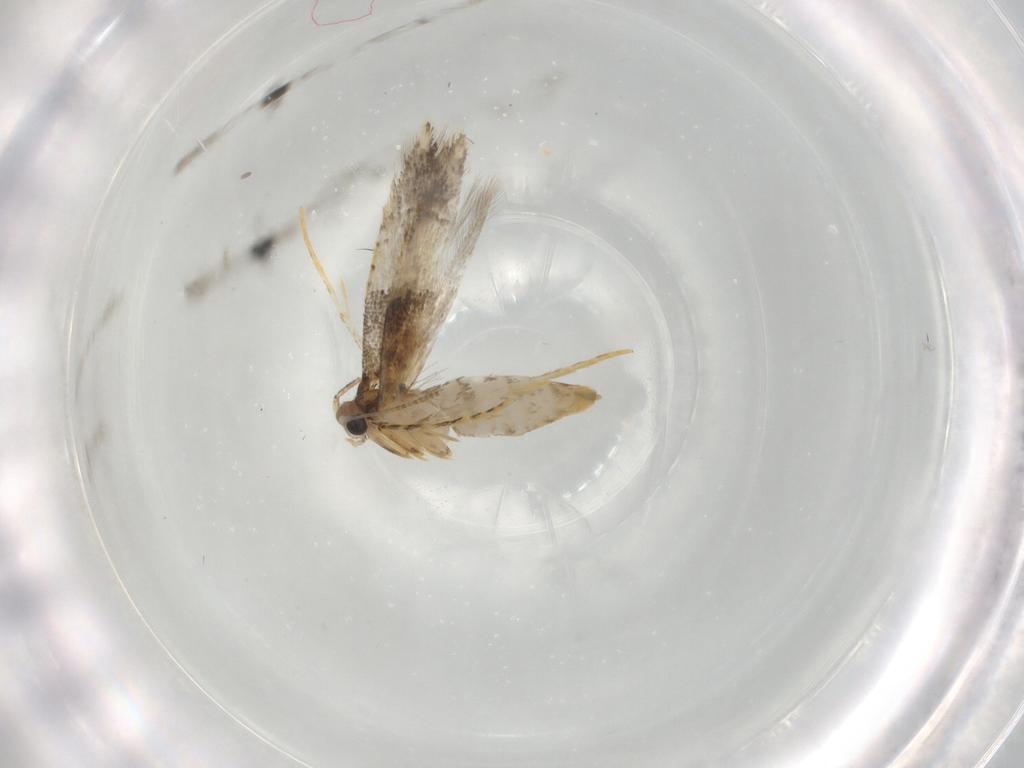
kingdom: Animalia
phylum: Arthropoda
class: Insecta
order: Lepidoptera
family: Tineidae
